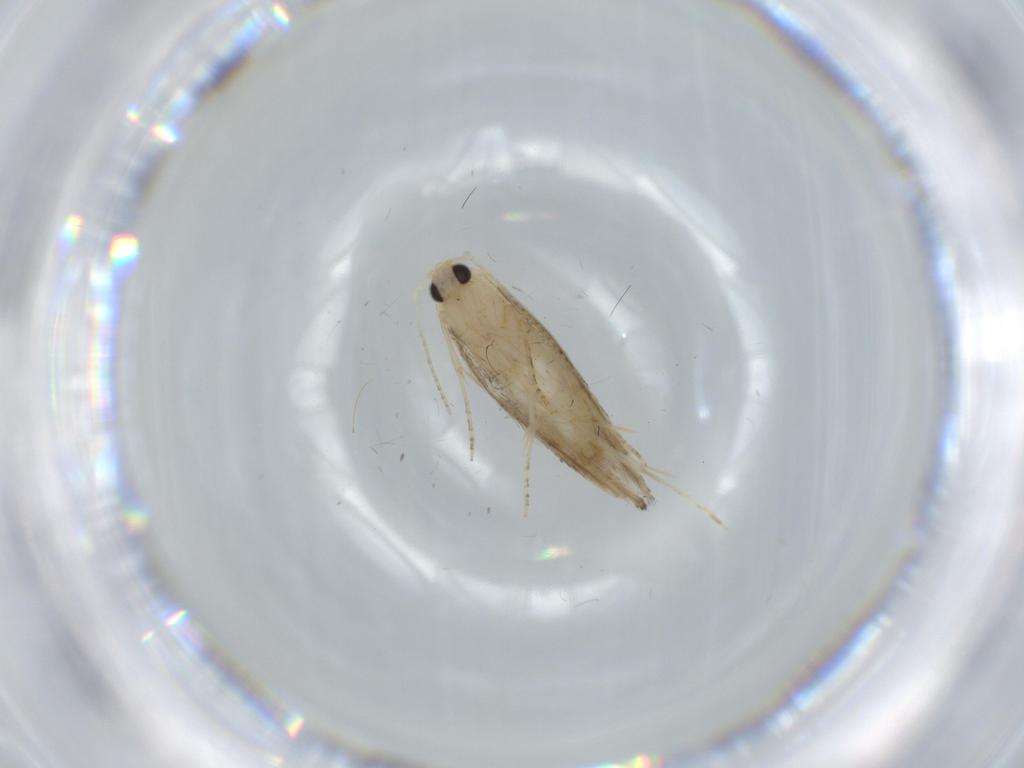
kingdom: Animalia
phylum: Arthropoda
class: Insecta
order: Lepidoptera
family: Bucculatricidae
